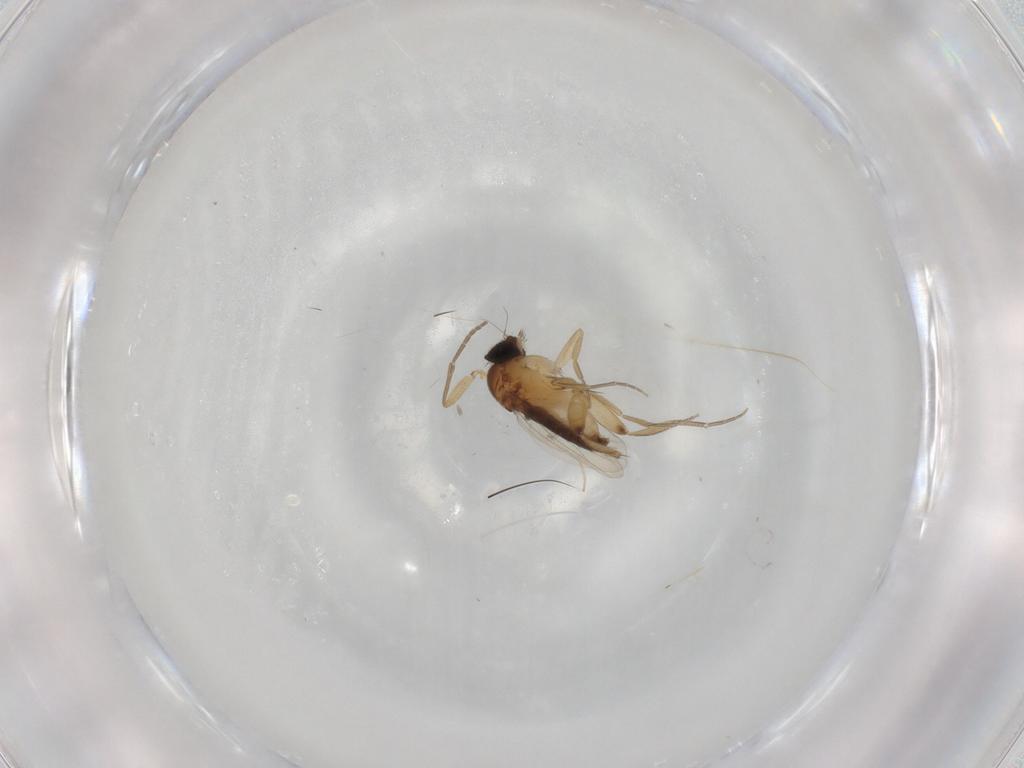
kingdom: Animalia
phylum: Arthropoda
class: Insecta
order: Diptera
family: Phoridae
